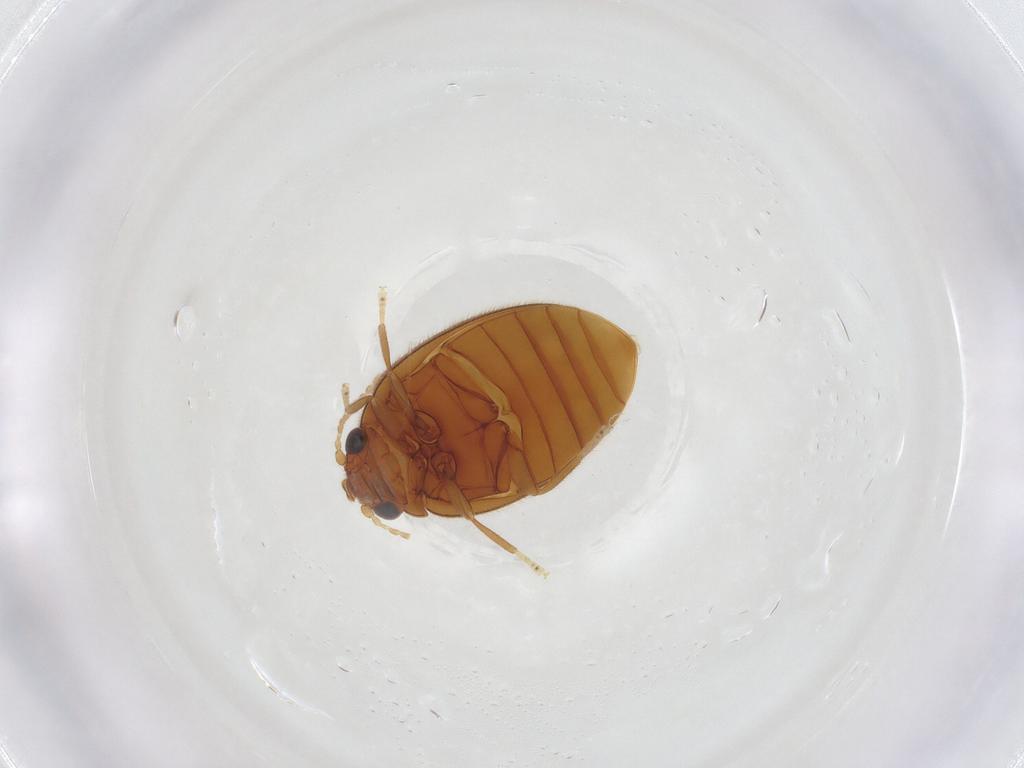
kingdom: Animalia
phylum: Arthropoda
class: Insecta
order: Coleoptera
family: Scirtidae
